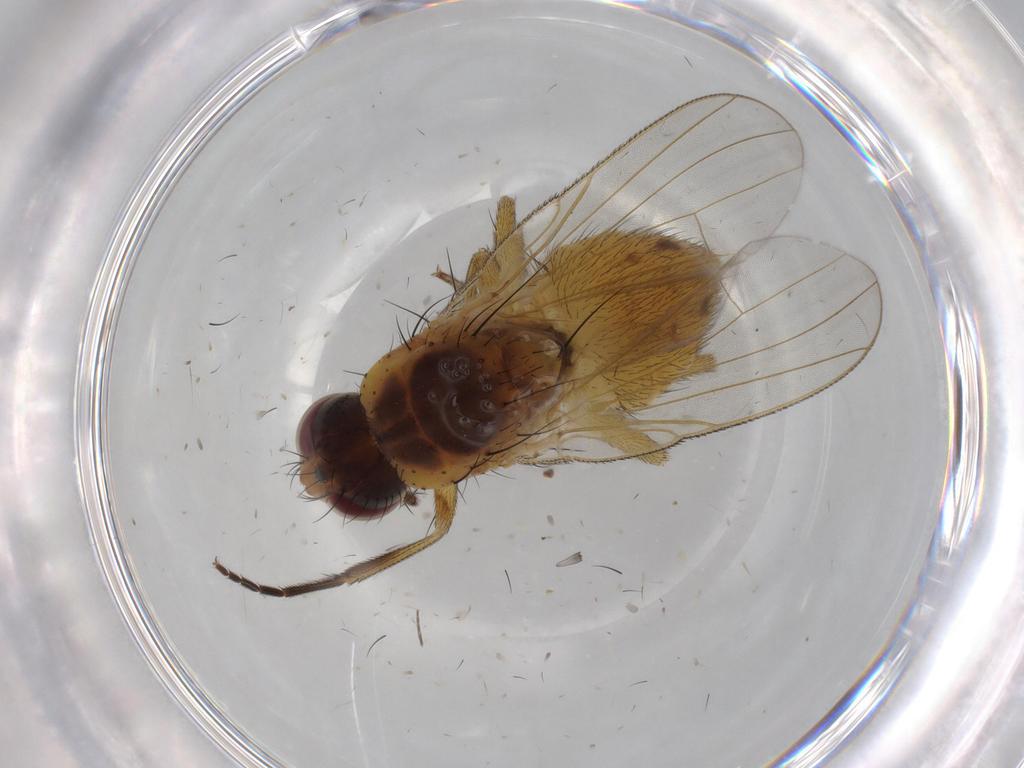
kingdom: Animalia
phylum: Arthropoda
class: Insecta
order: Diptera
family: Muscidae
